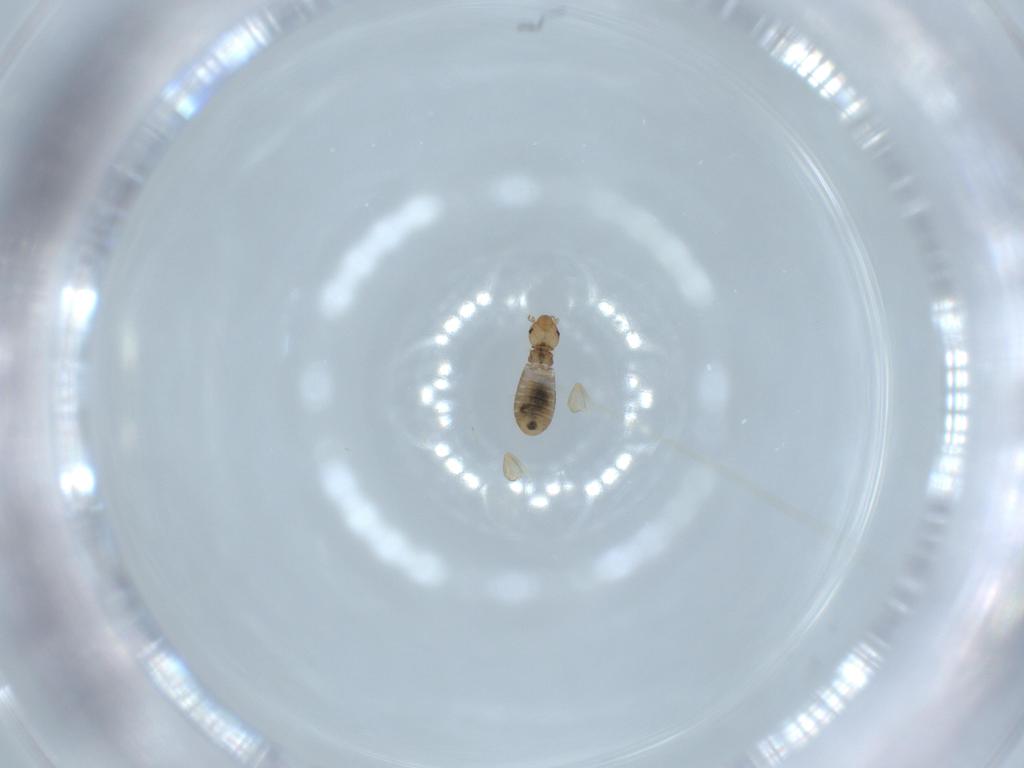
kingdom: Animalia
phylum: Arthropoda
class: Insecta
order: Psocodea
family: Liposcelididae
